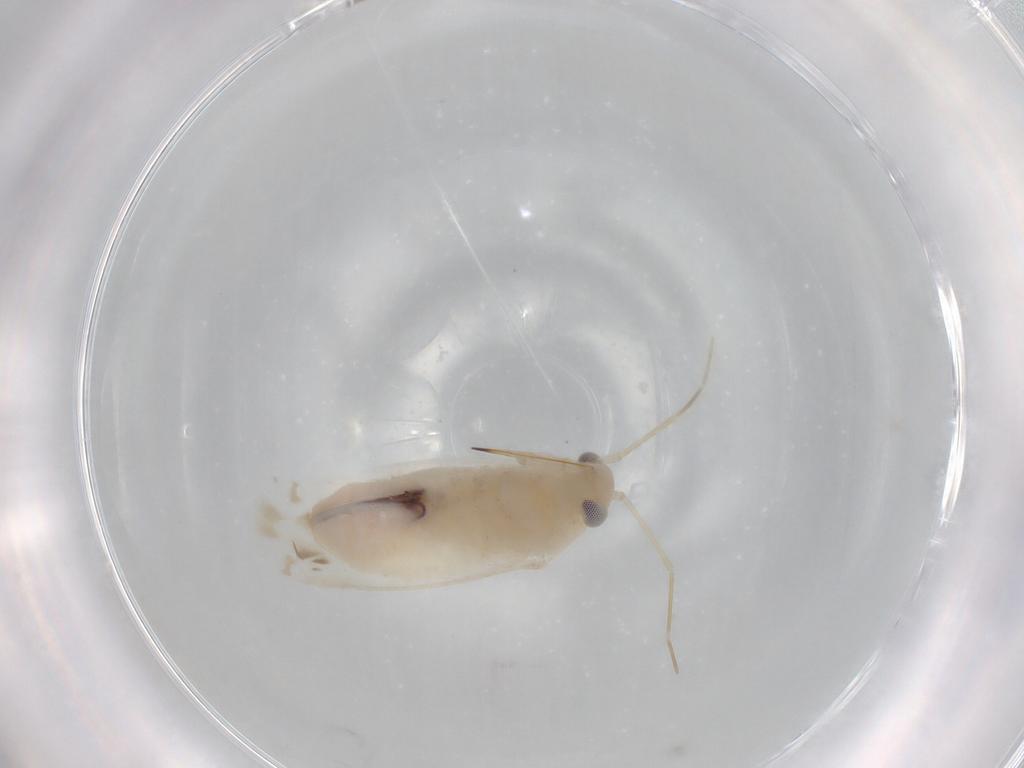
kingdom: Animalia
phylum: Arthropoda
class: Insecta
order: Hemiptera
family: Miridae
